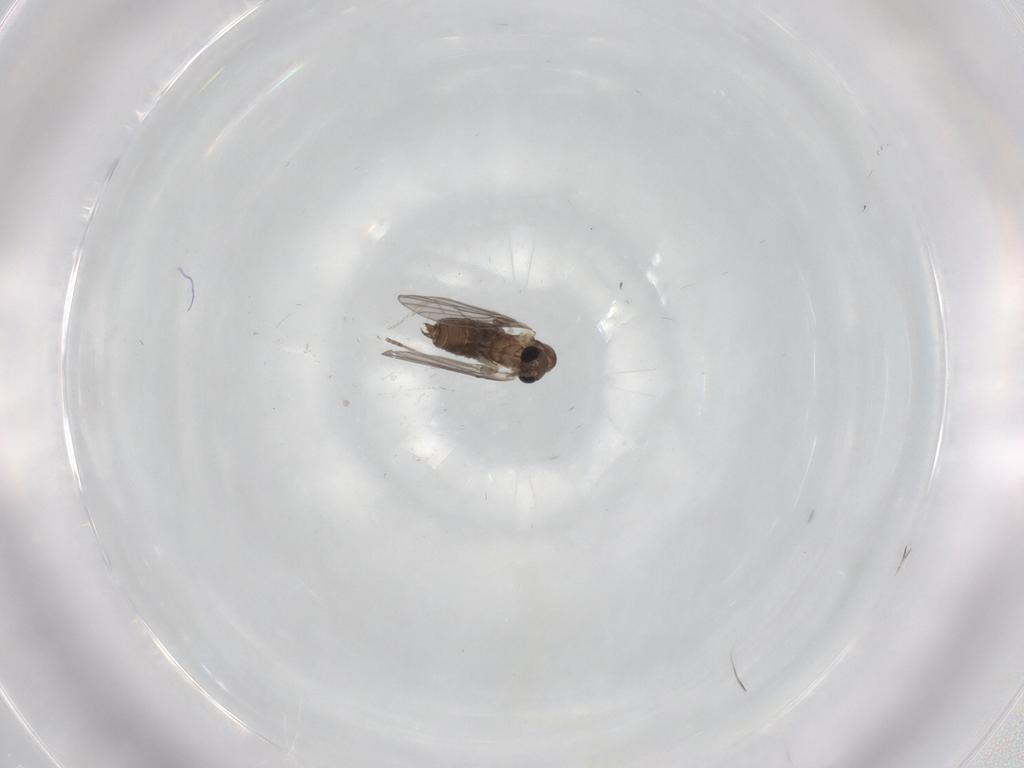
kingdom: Animalia
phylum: Arthropoda
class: Insecta
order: Diptera
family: Cecidomyiidae
